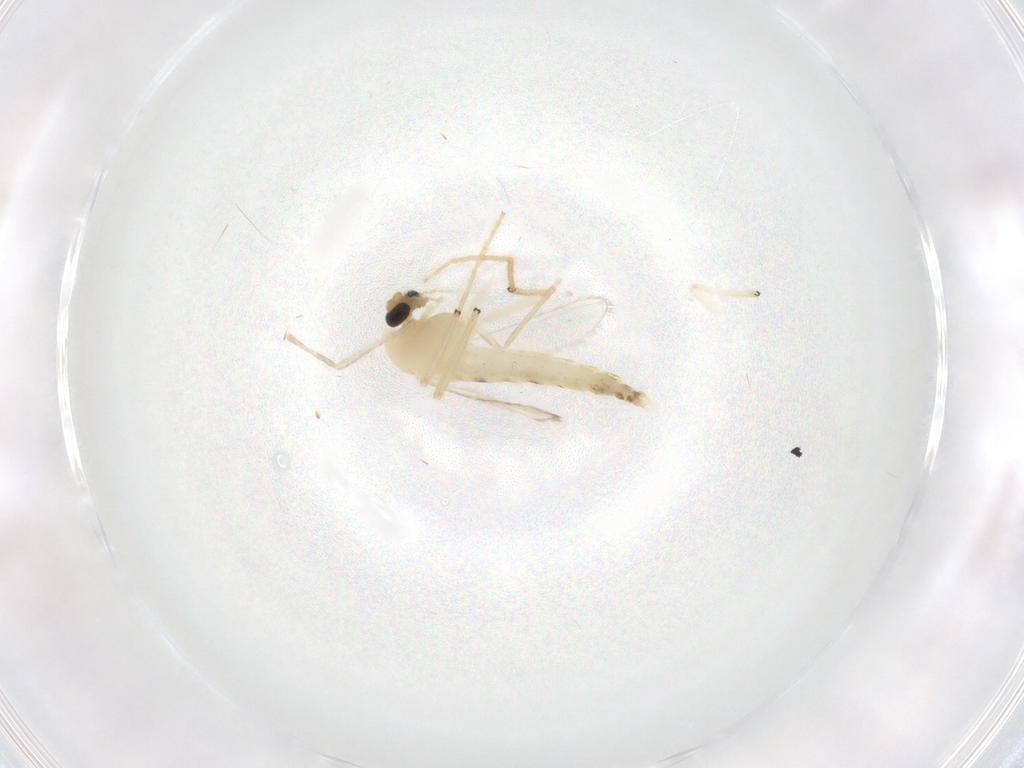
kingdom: Animalia
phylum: Arthropoda
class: Insecta
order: Diptera
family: Chironomidae
